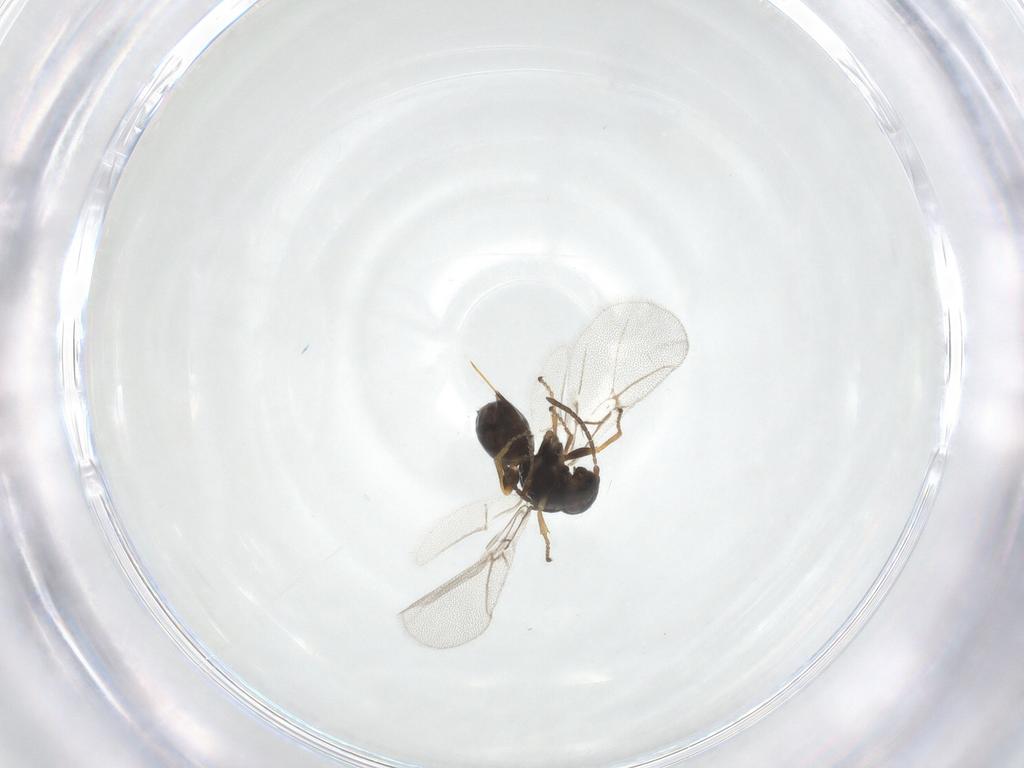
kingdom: Animalia
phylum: Arthropoda
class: Insecta
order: Hymenoptera
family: Cynipidae
